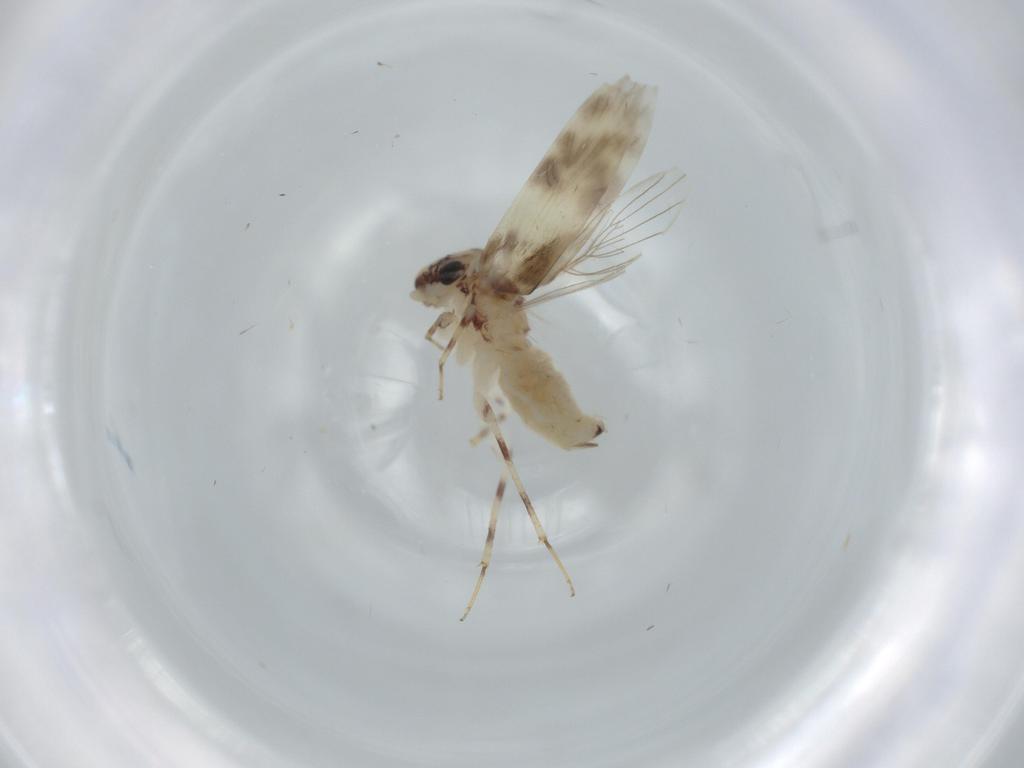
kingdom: Animalia
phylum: Arthropoda
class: Insecta
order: Psocodea
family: Lepidopsocidae
